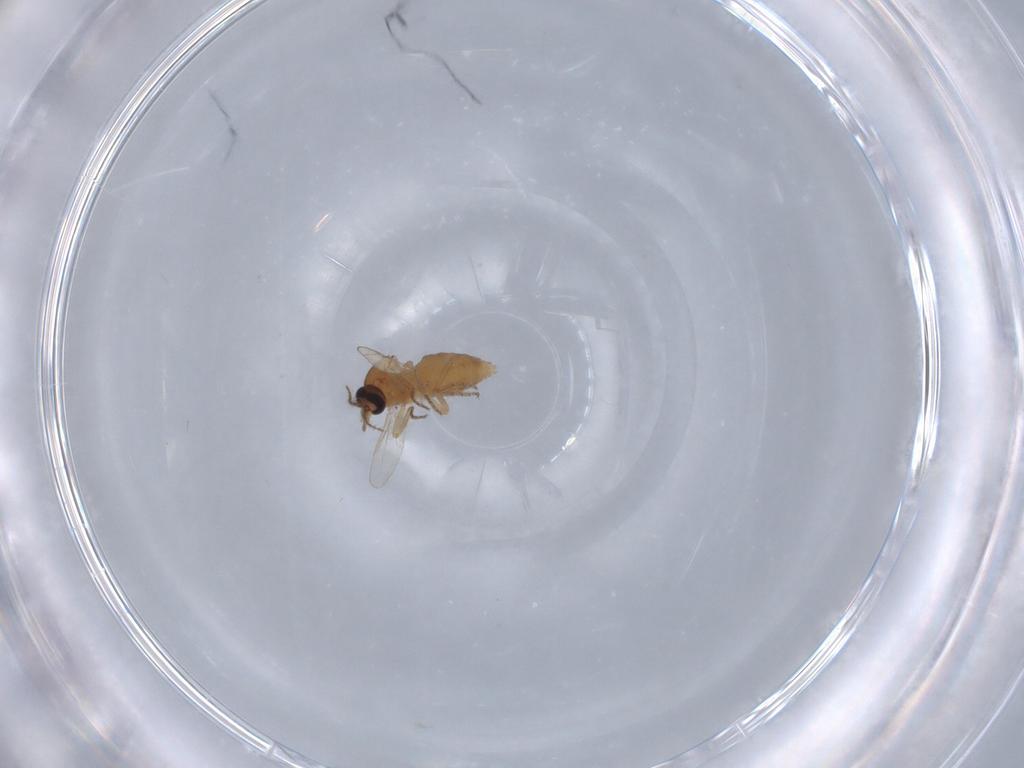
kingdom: Animalia
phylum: Arthropoda
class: Insecta
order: Diptera
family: Ceratopogonidae
